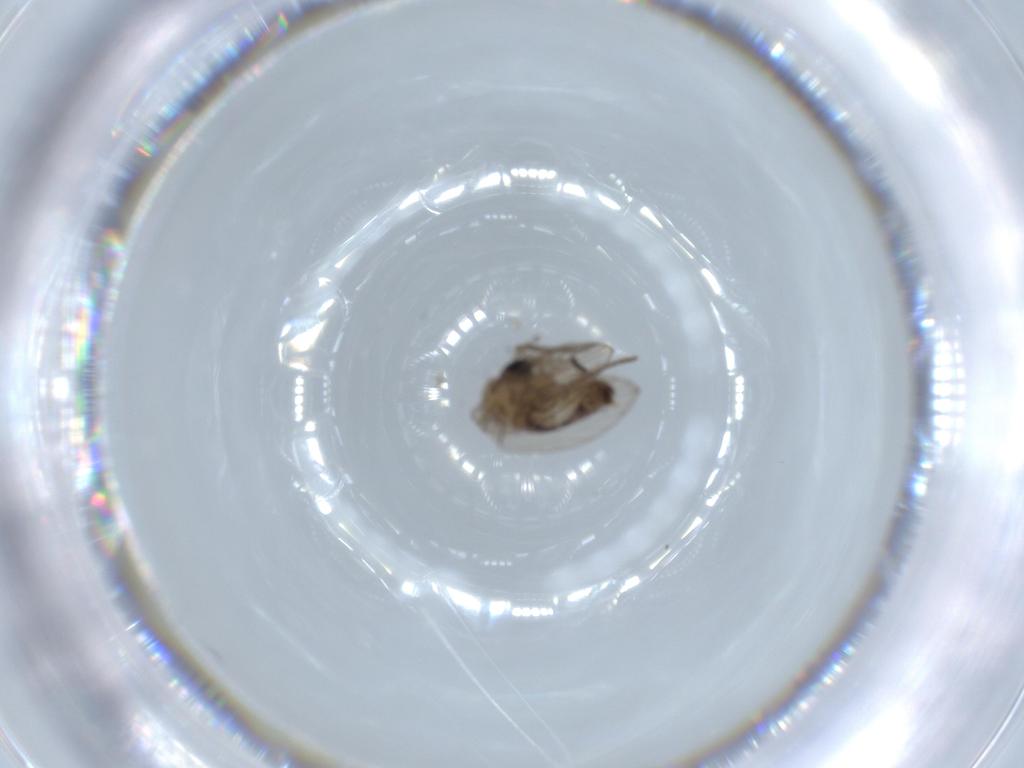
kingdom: Animalia
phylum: Arthropoda
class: Insecta
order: Diptera
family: Psychodidae
